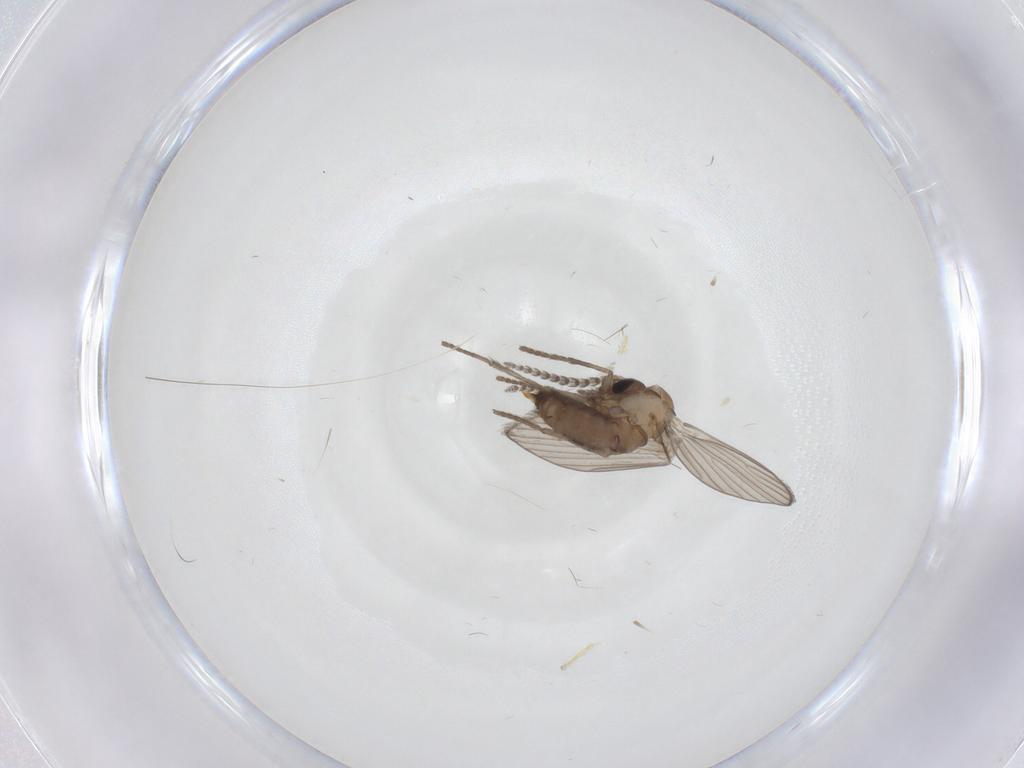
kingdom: Animalia
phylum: Arthropoda
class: Insecta
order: Diptera
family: Psychodidae
